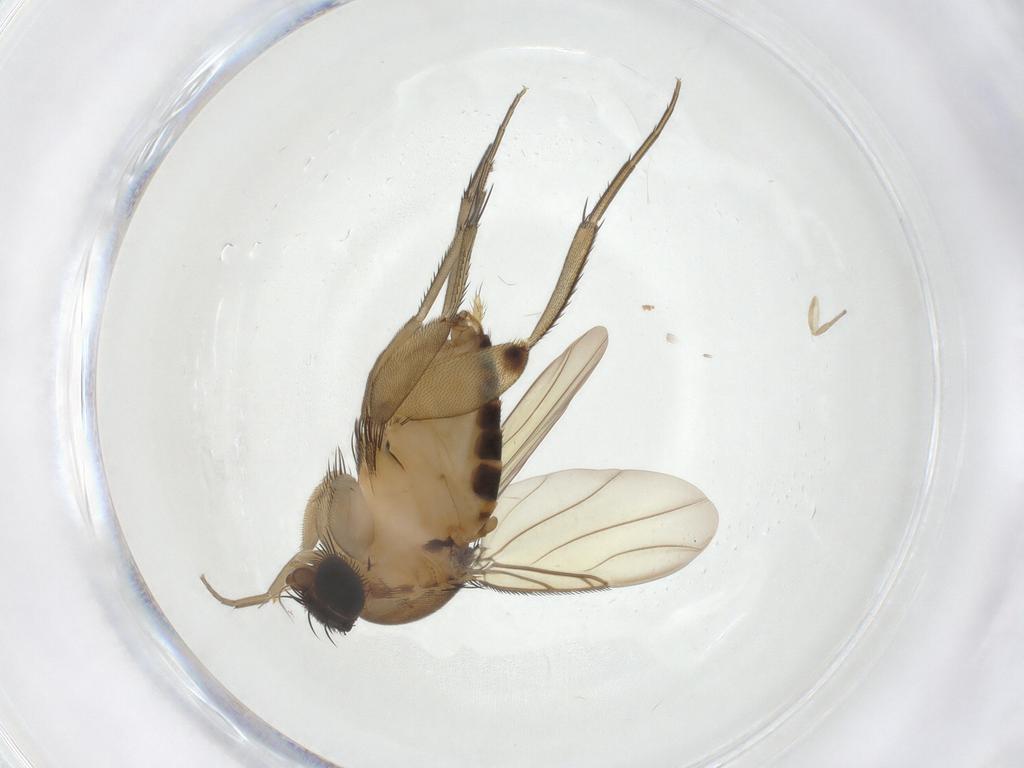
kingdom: Animalia
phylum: Arthropoda
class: Insecta
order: Diptera
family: Phoridae
